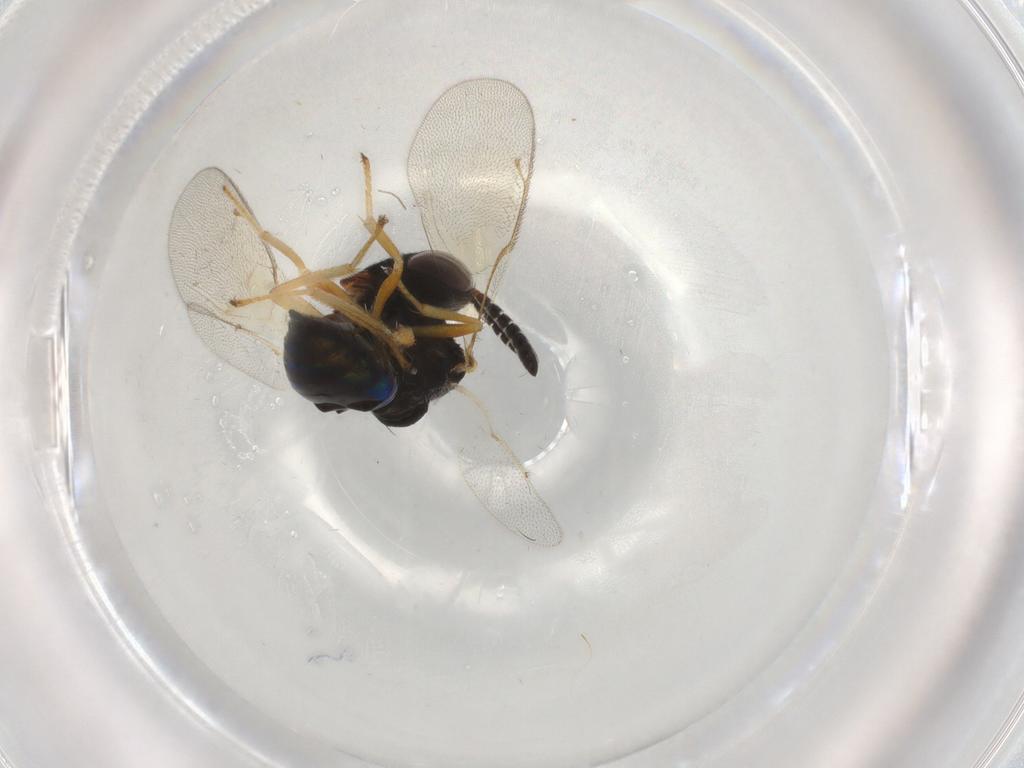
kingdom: Animalia
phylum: Arthropoda
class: Insecta
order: Hymenoptera
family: Pteromalidae
